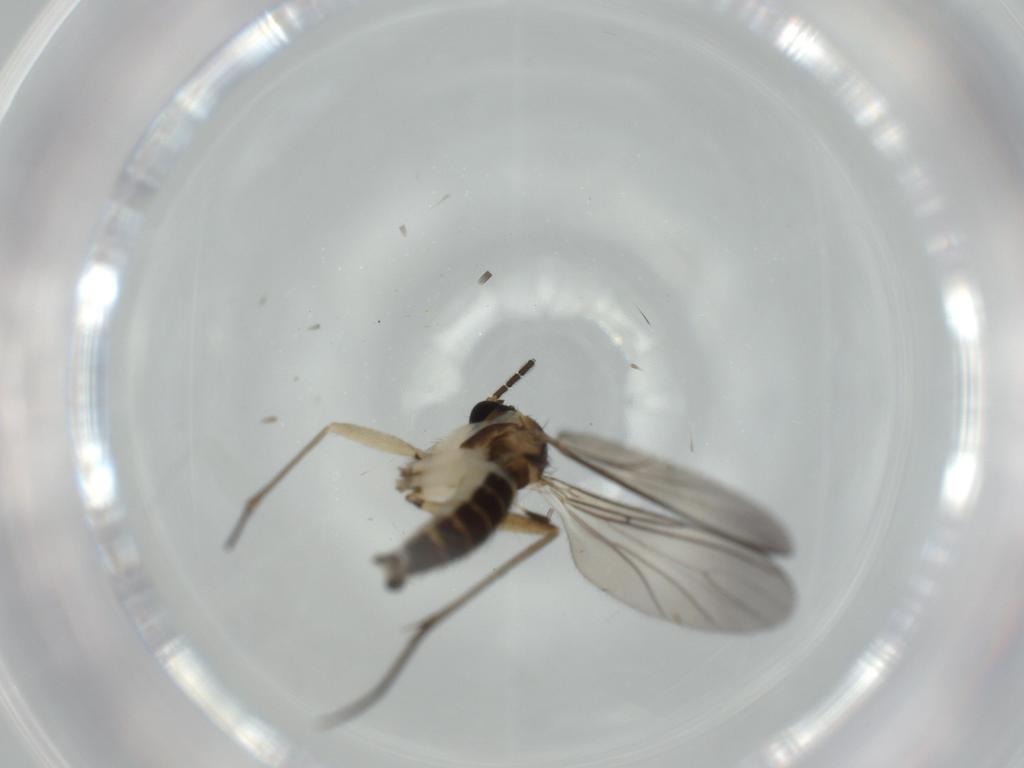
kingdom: Animalia
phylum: Arthropoda
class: Insecta
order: Diptera
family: Sciaridae
